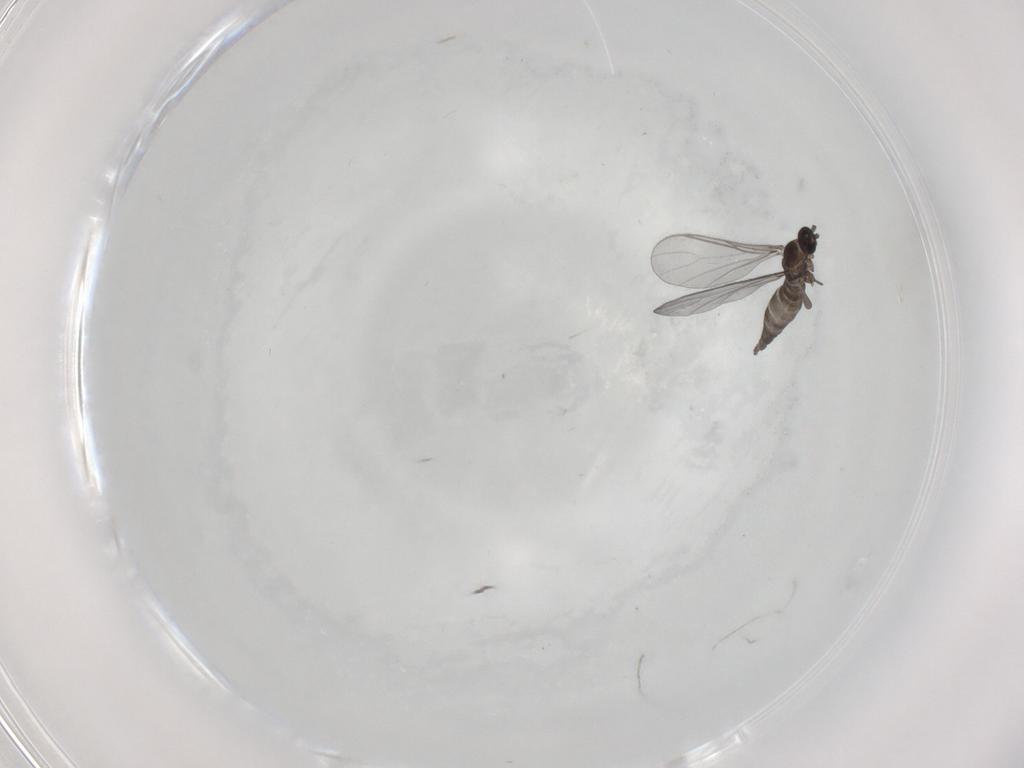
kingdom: Animalia
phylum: Arthropoda
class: Insecta
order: Diptera
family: Sciaridae
